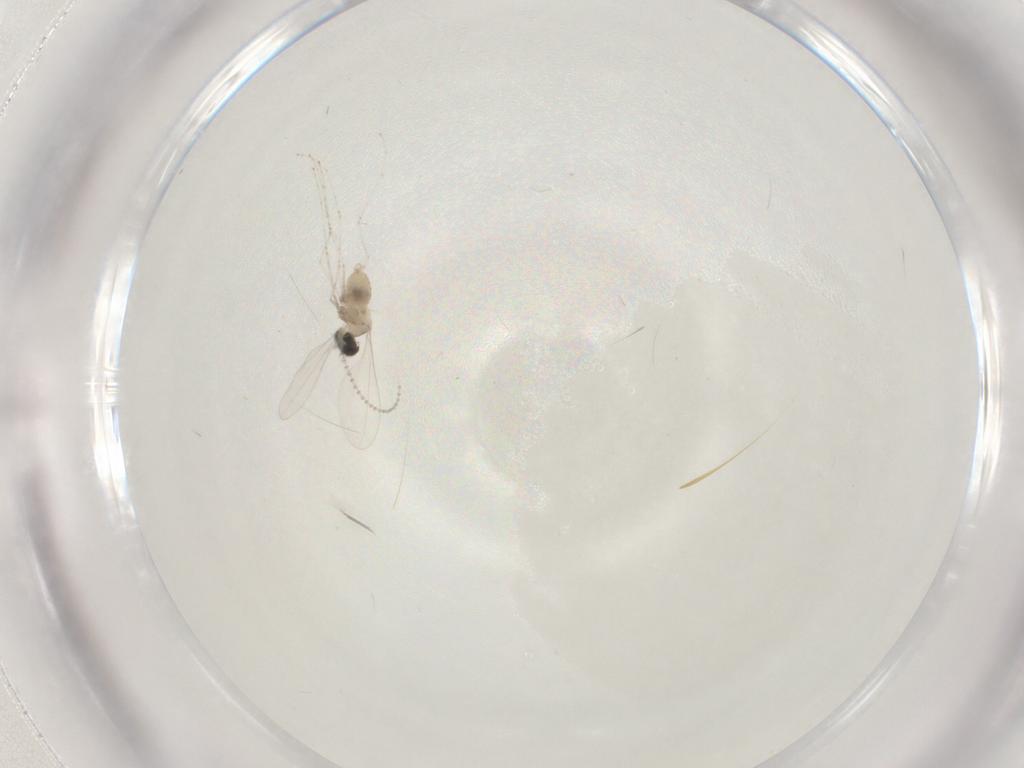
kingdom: Animalia
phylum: Arthropoda
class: Insecta
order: Diptera
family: Cecidomyiidae
